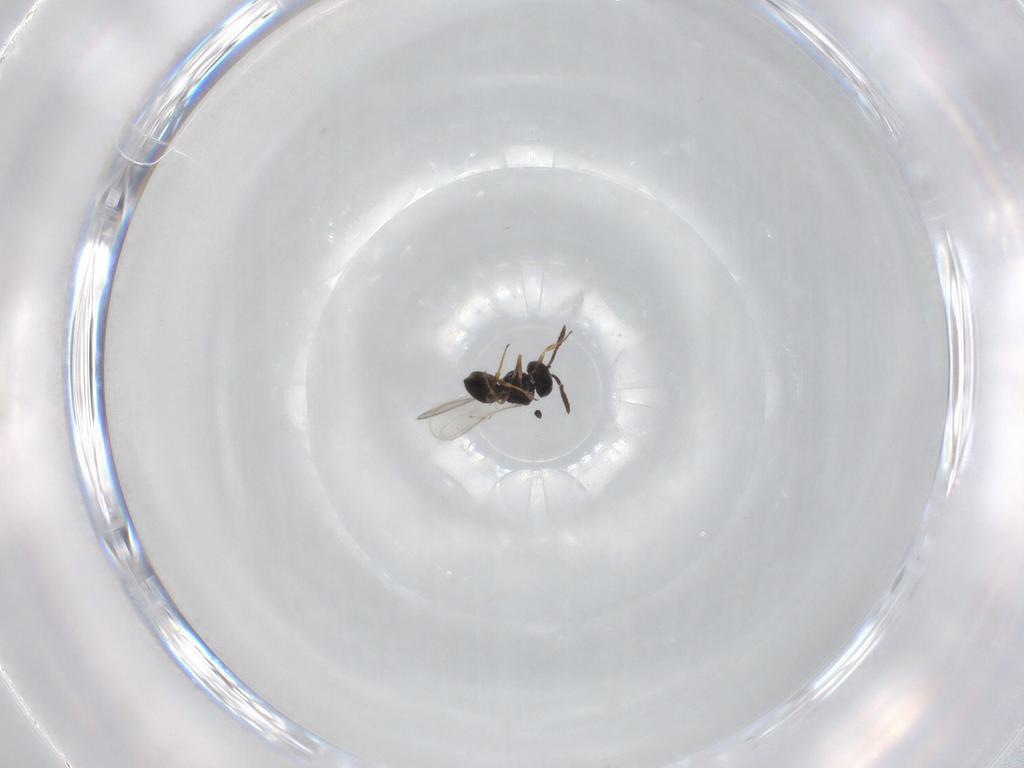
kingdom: Animalia
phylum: Arthropoda
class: Insecta
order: Hymenoptera
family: Scelionidae
